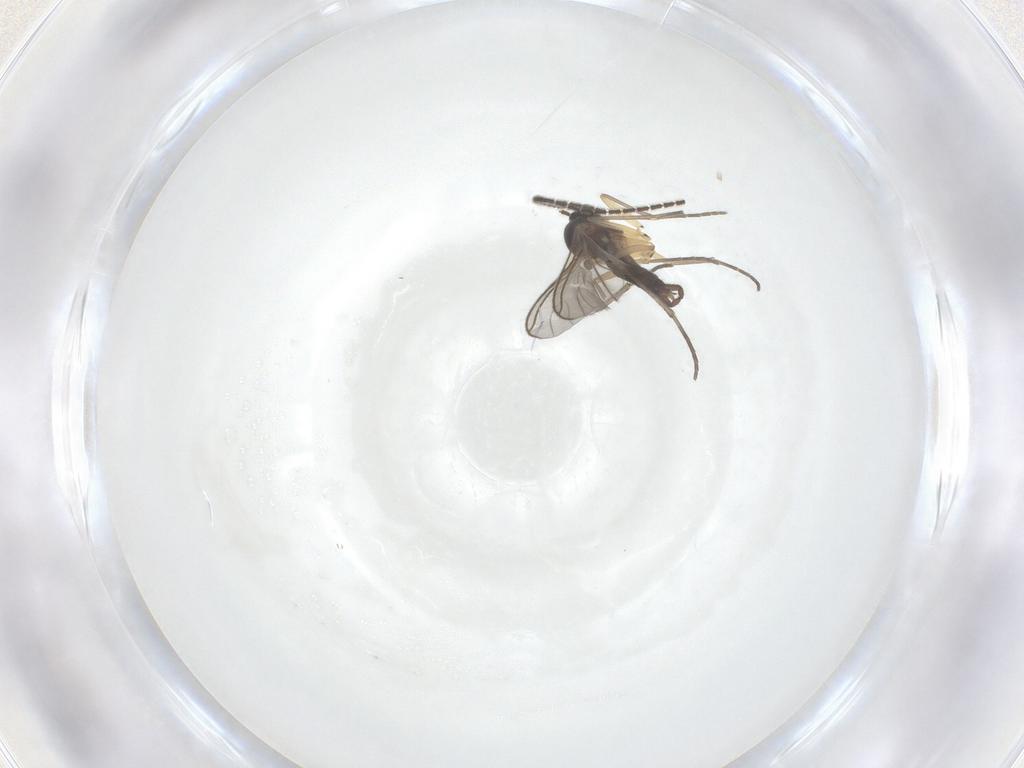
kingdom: Animalia
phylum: Arthropoda
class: Insecta
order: Diptera
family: Sciaridae
